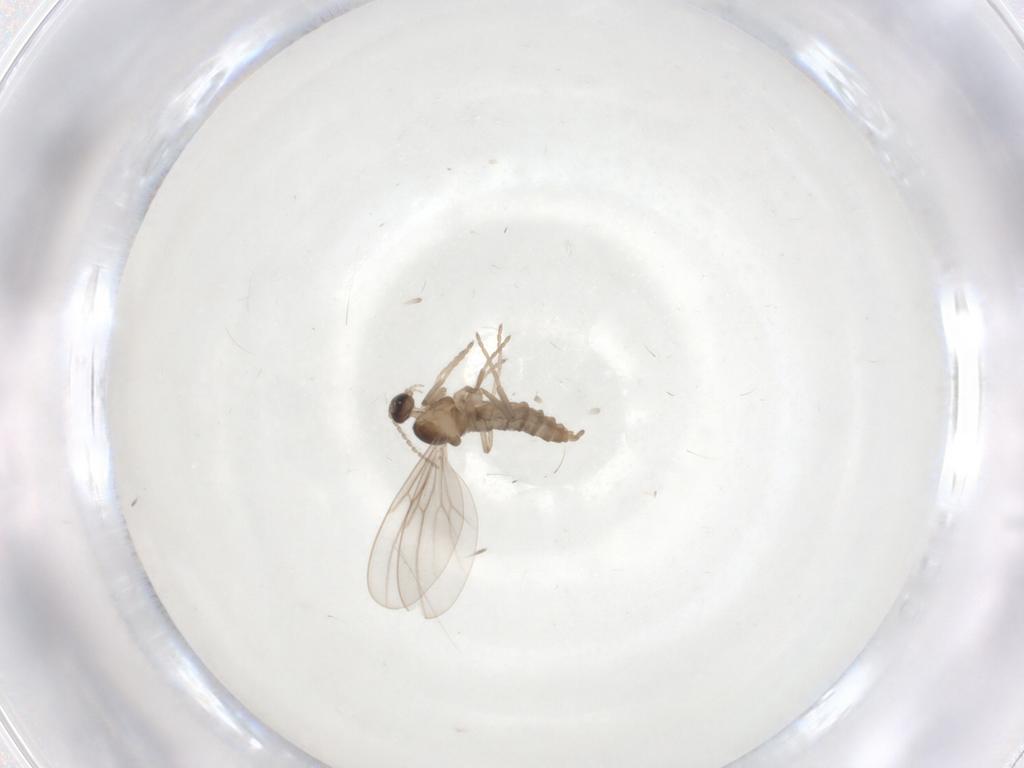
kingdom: Animalia
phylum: Arthropoda
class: Insecta
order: Diptera
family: Cecidomyiidae
